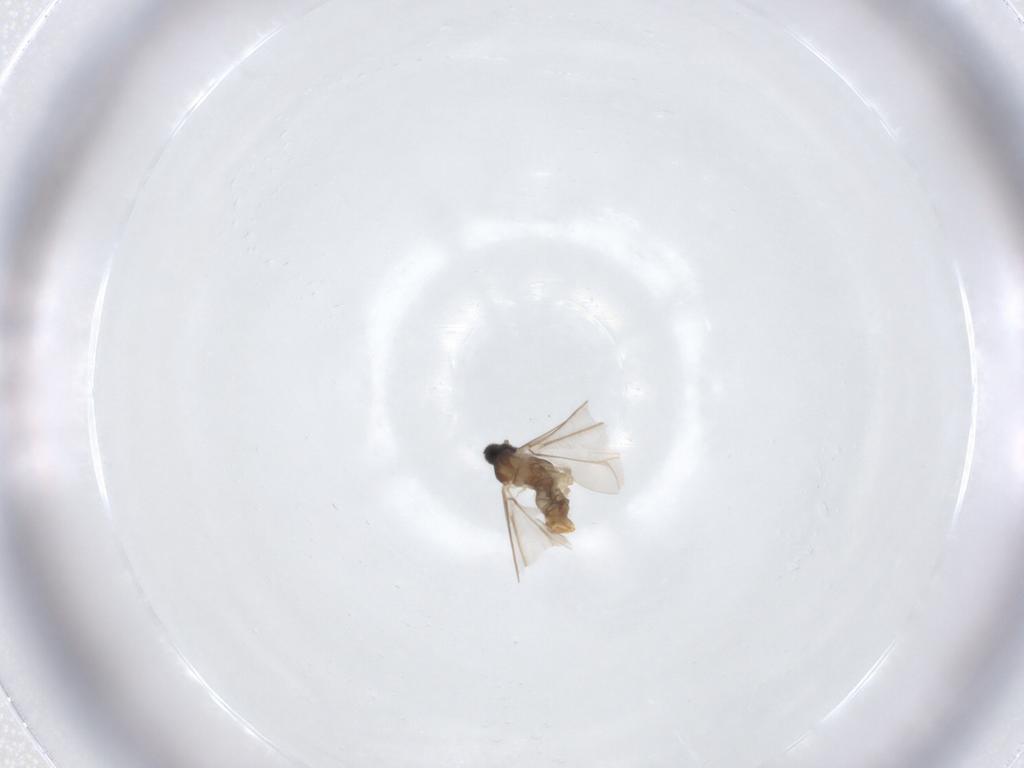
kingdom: Animalia
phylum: Arthropoda
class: Insecta
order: Diptera
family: Cecidomyiidae
